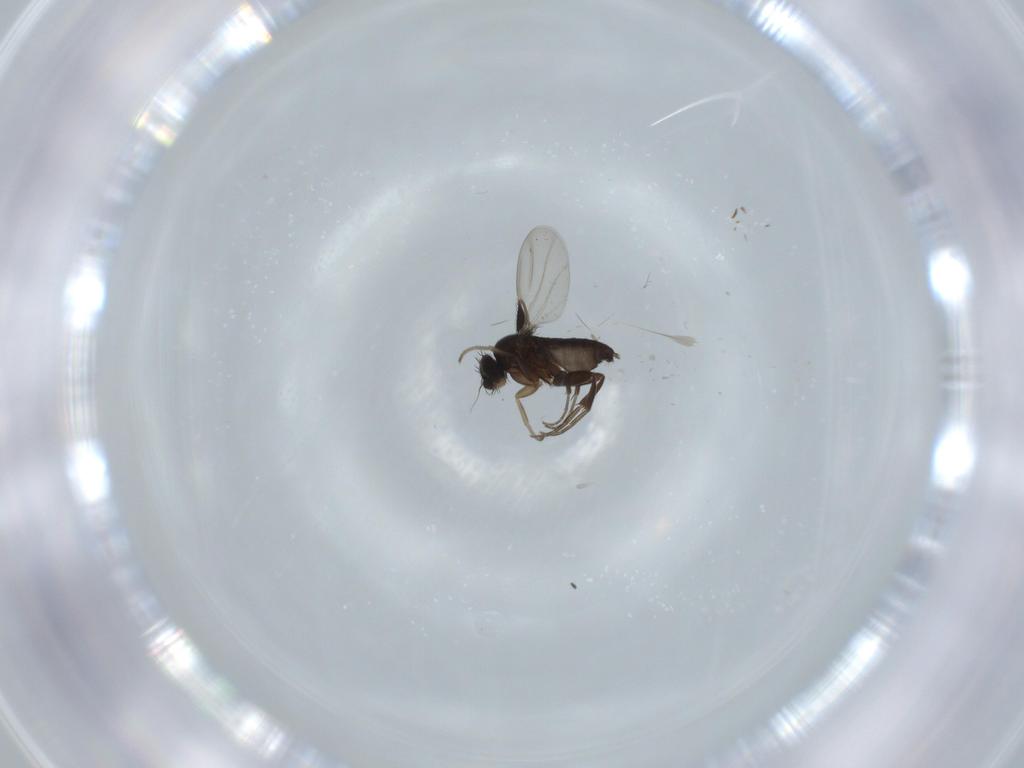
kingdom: Animalia
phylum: Arthropoda
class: Insecta
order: Diptera
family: Phoridae
